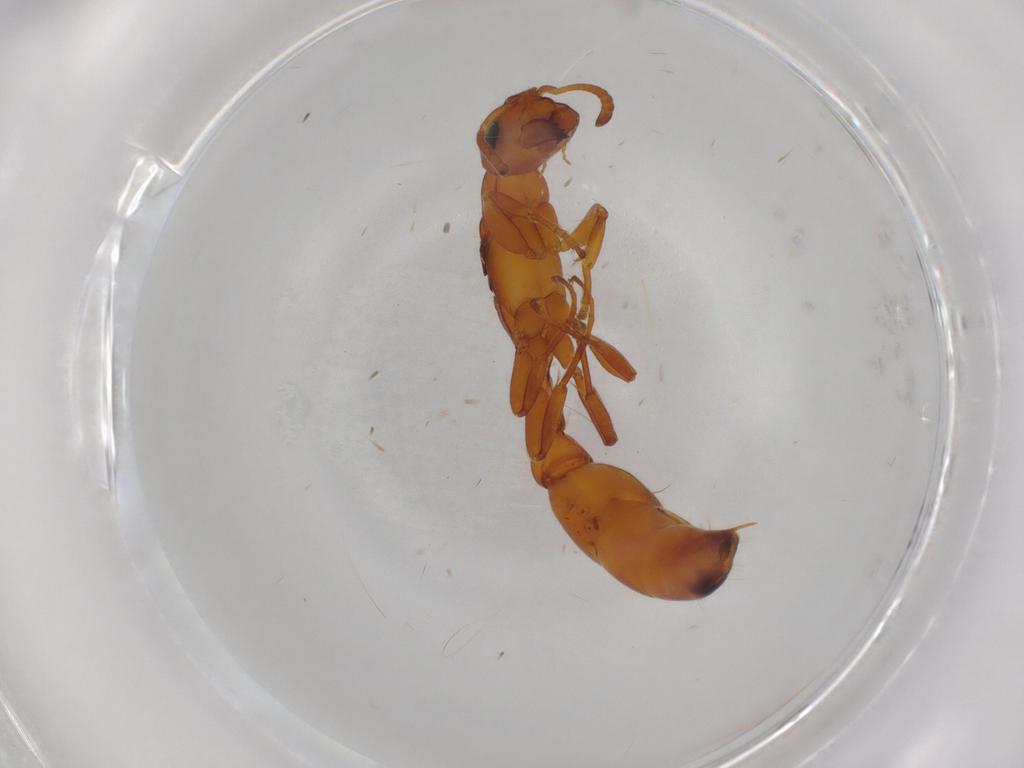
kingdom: Animalia
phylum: Arthropoda
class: Insecta
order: Hymenoptera
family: Formicidae
